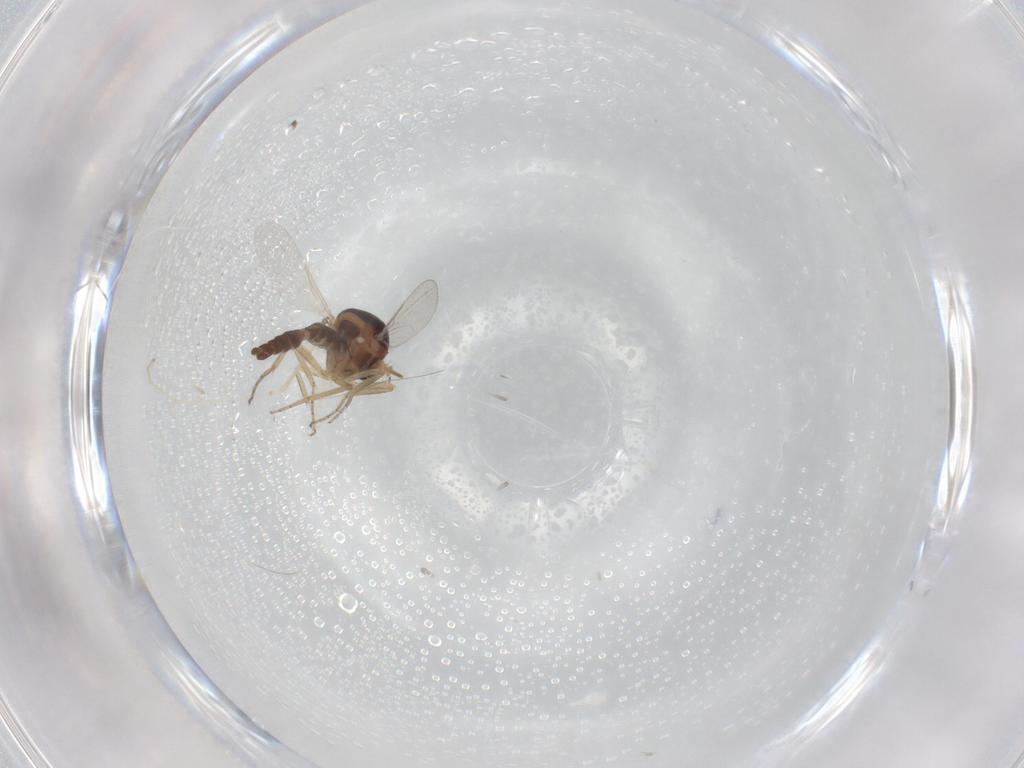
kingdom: Animalia
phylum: Arthropoda
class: Insecta
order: Diptera
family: Ceratopogonidae
